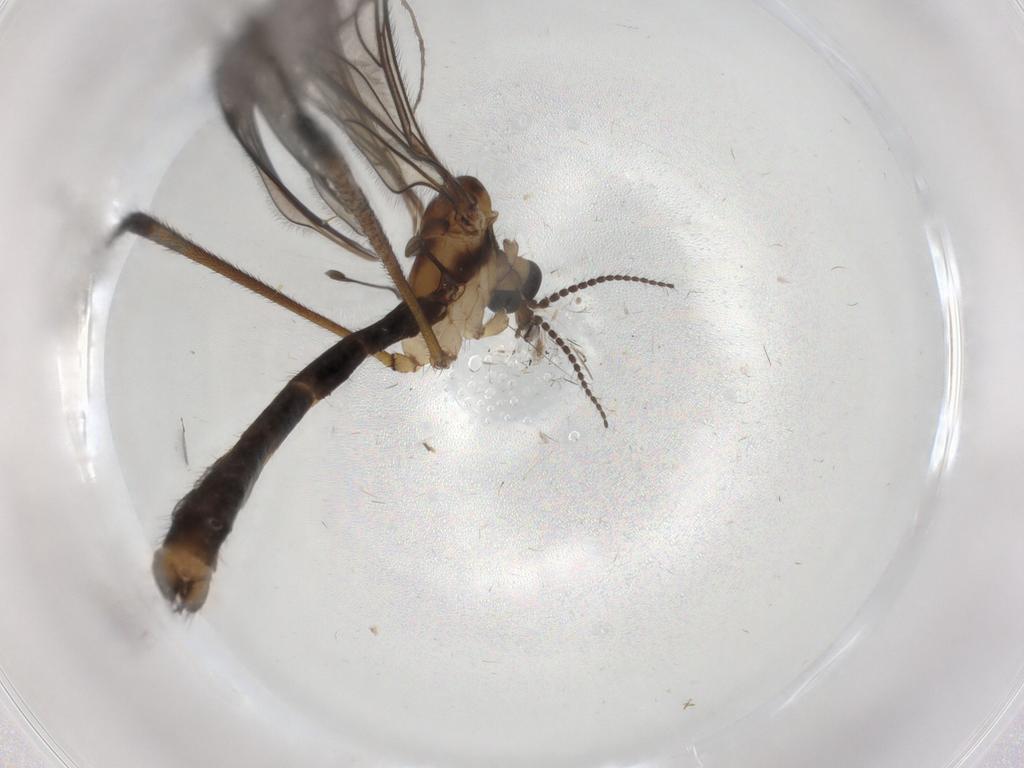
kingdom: Animalia
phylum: Arthropoda
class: Insecta
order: Diptera
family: Limoniidae
